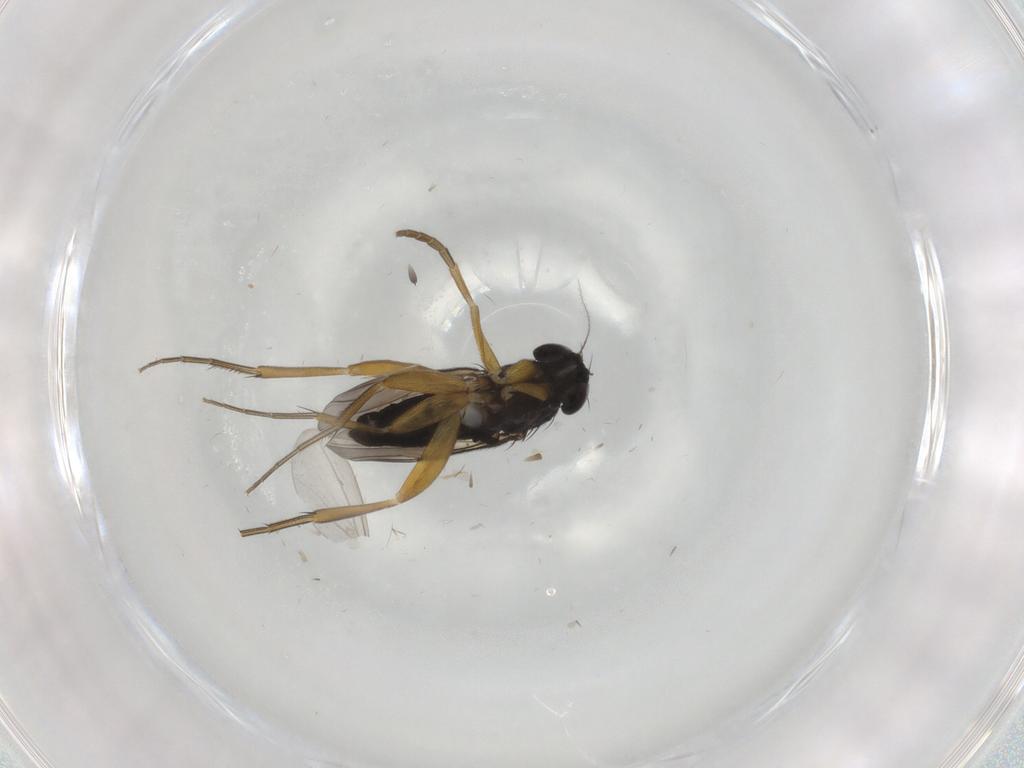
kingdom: Animalia
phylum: Arthropoda
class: Insecta
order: Diptera
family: Cecidomyiidae
